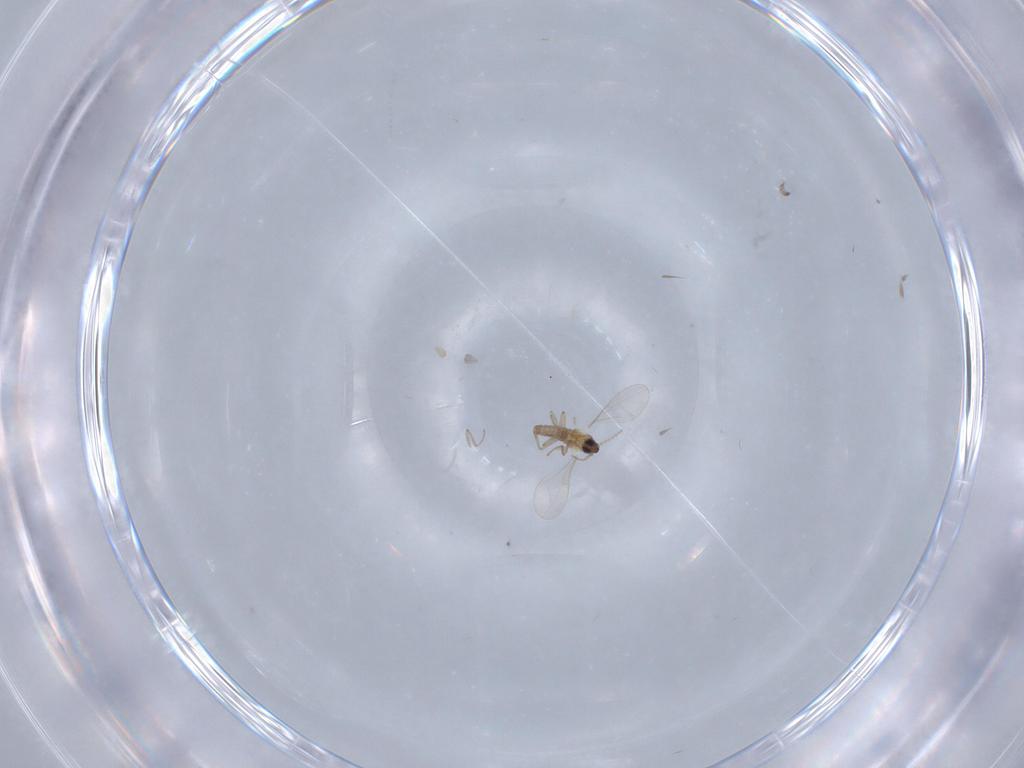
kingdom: Animalia
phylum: Arthropoda
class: Insecta
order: Diptera
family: Cecidomyiidae
